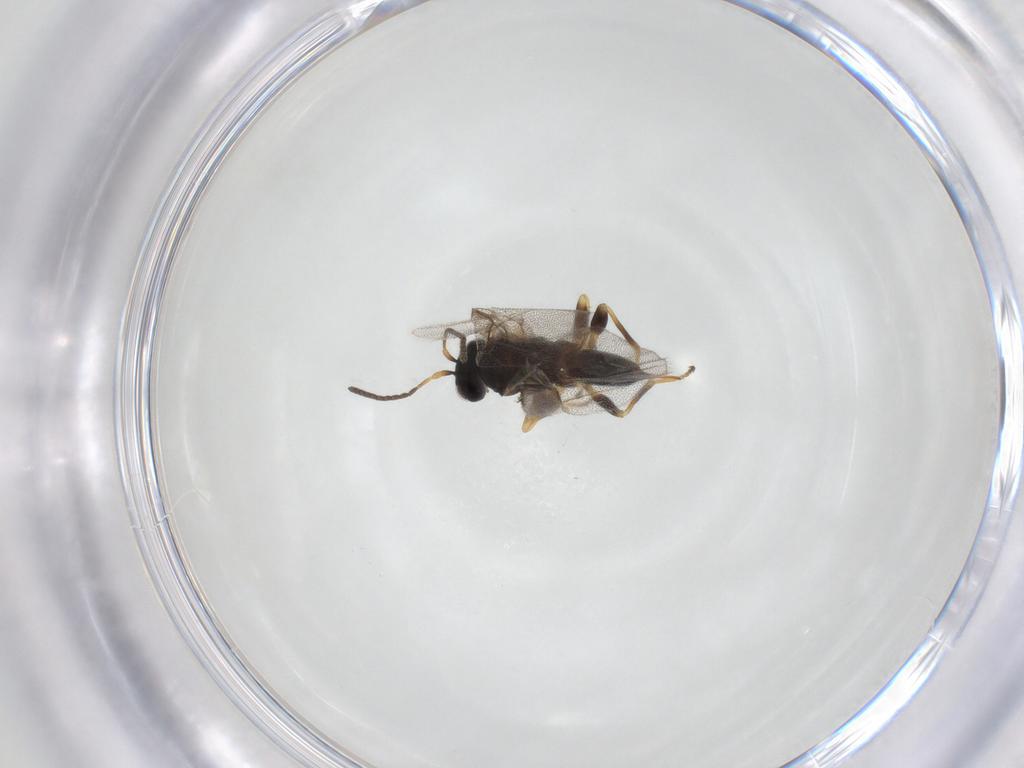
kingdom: Animalia
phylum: Arthropoda
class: Insecta
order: Hymenoptera
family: Cynipidae
